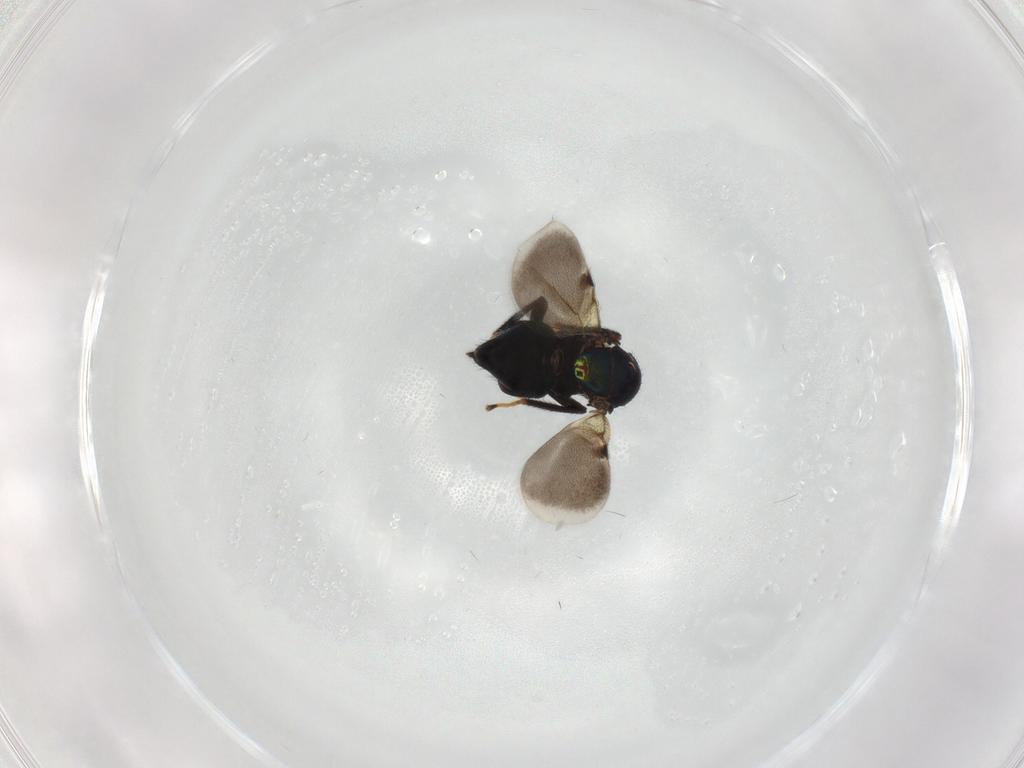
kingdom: Animalia
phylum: Arthropoda
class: Insecta
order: Hymenoptera
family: Encyrtidae
